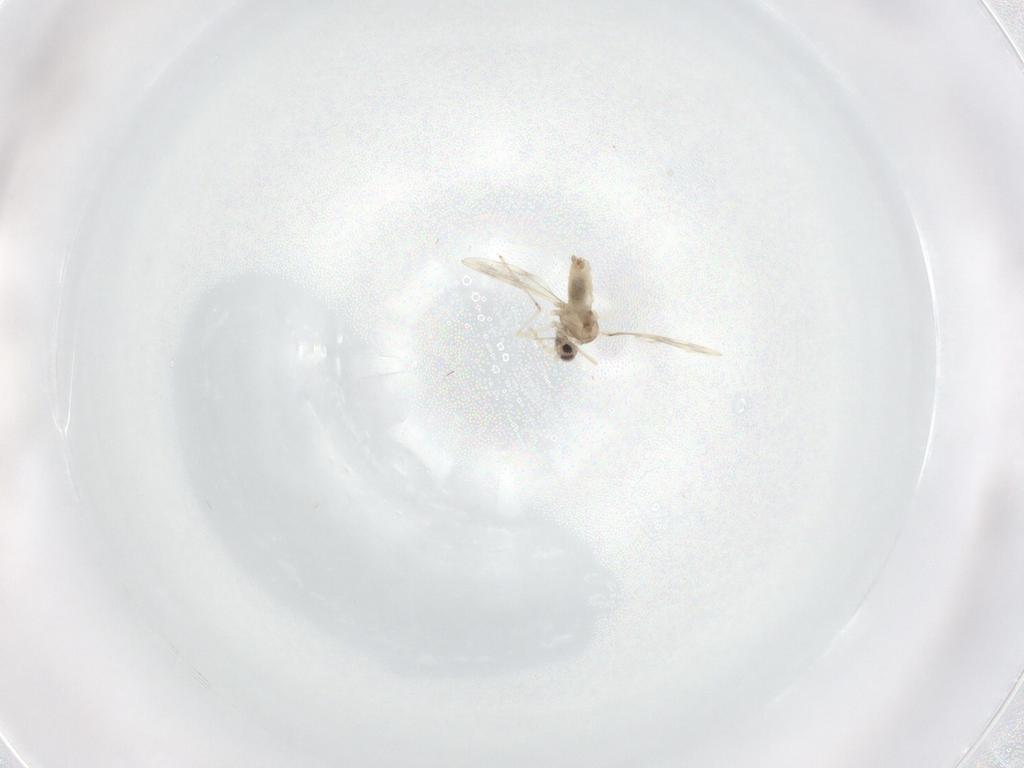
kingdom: Animalia
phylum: Arthropoda
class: Insecta
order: Diptera
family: Psychodidae
